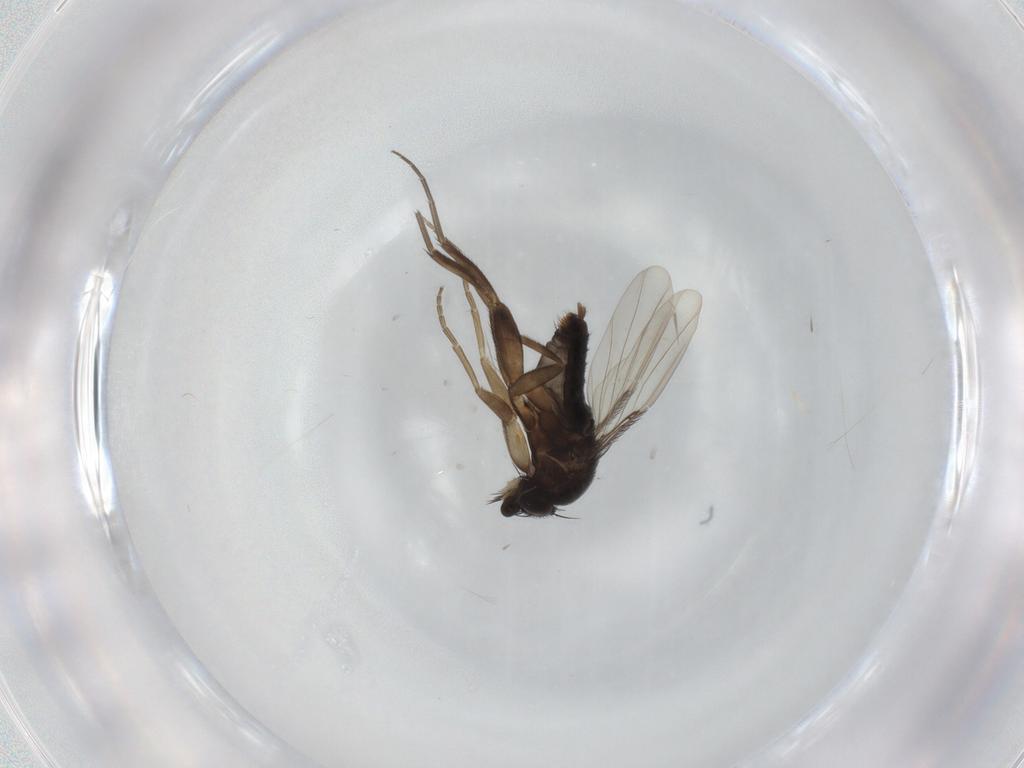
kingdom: Animalia
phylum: Arthropoda
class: Insecta
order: Diptera
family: Phoridae
